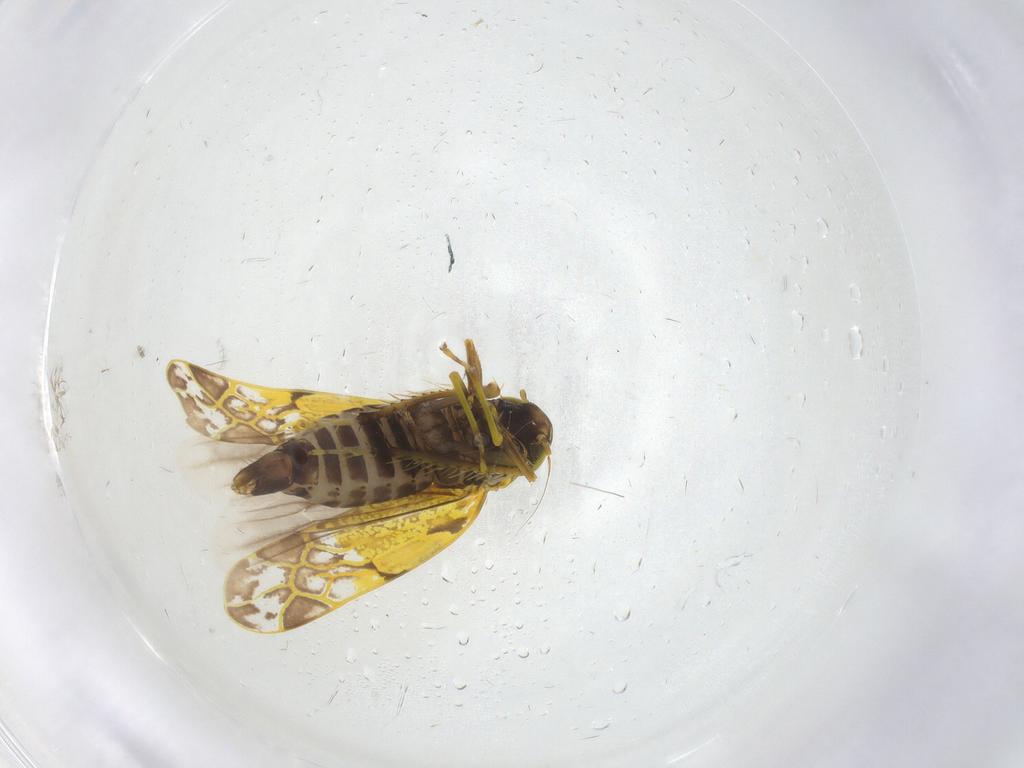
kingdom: Animalia
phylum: Arthropoda
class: Insecta
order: Hemiptera
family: Cicadellidae
